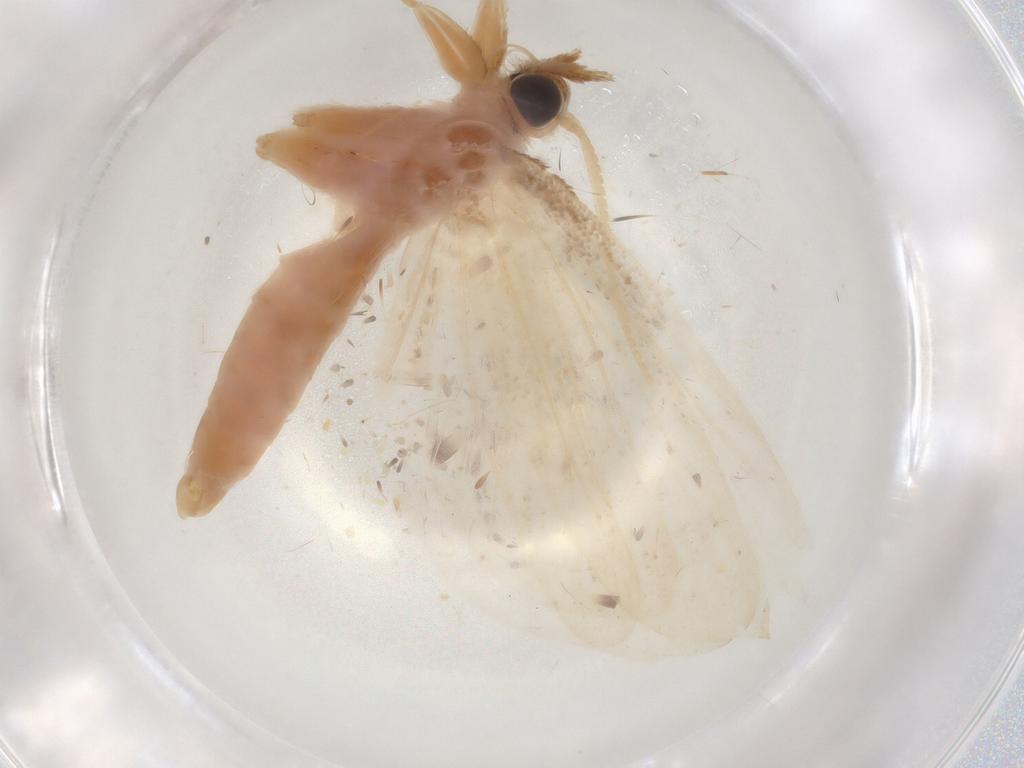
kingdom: Animalia
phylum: Arthropoda
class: Insecta
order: Lepidoptera
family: Crambidae
